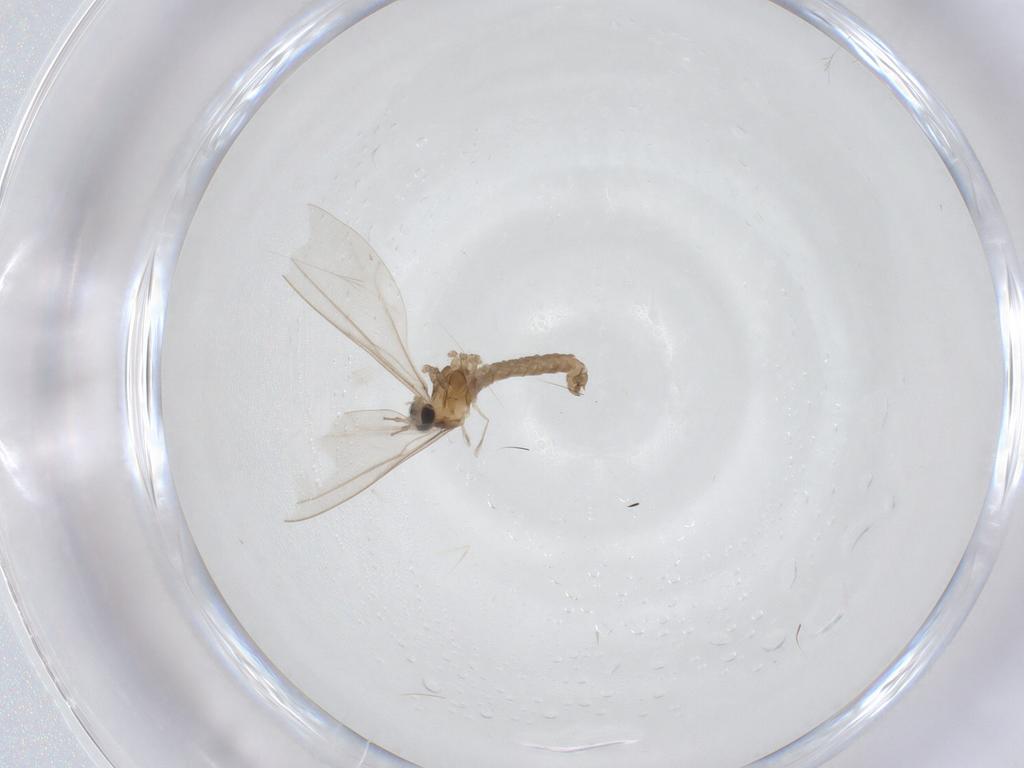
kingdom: Animalia
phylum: Arthropoda
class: Insecta
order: Diptera
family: Cecidomyiidae
